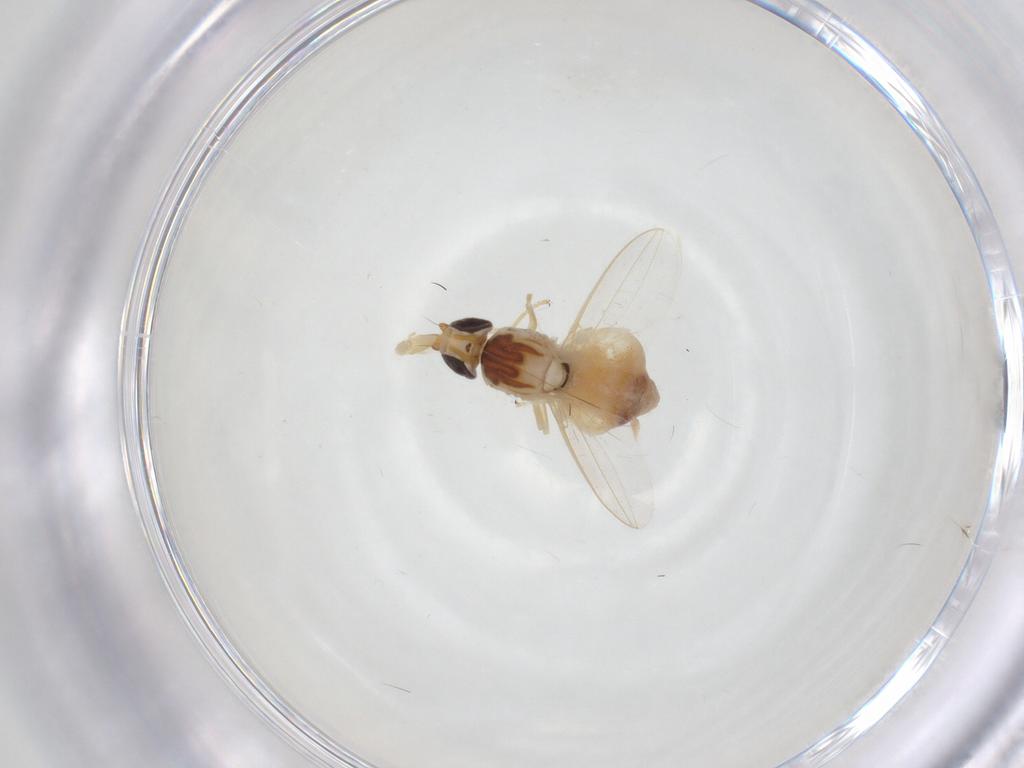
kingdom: Animalia
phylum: Arthropoda
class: Insecta
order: Diptera
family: Chloropidae
